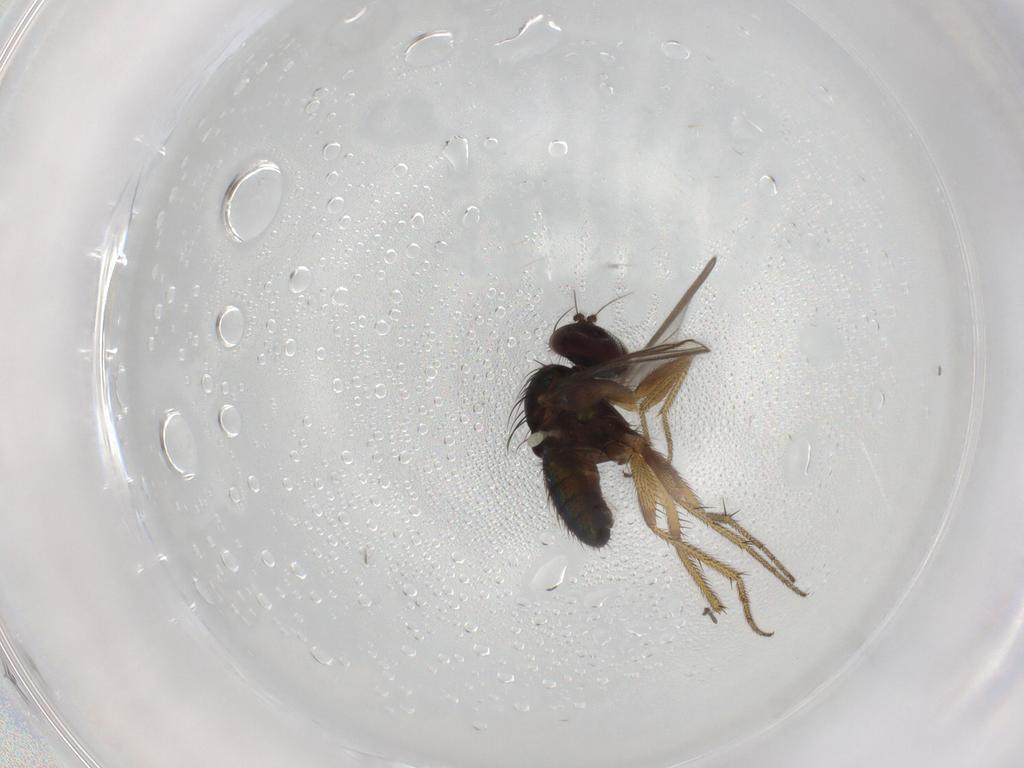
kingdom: Animalia
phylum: Arthropoda
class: Insecta
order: Diptera
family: Dolichopodidae
